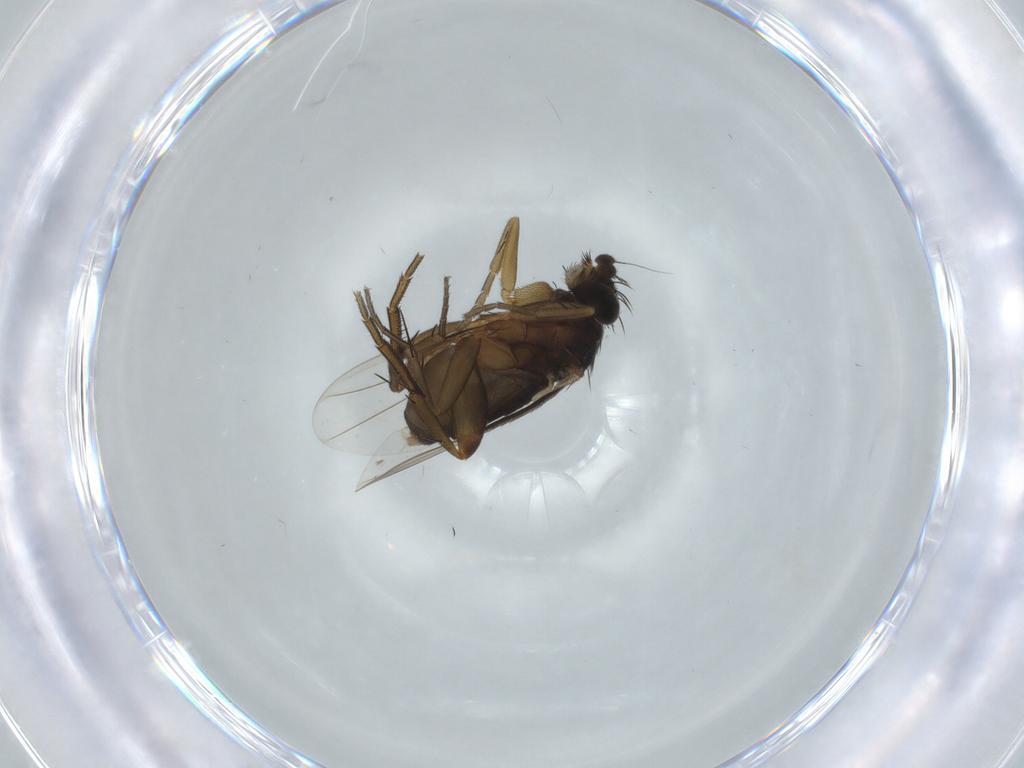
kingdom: Animalia
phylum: Arthropoda
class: Insecta
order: Diptera
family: Phoridae
